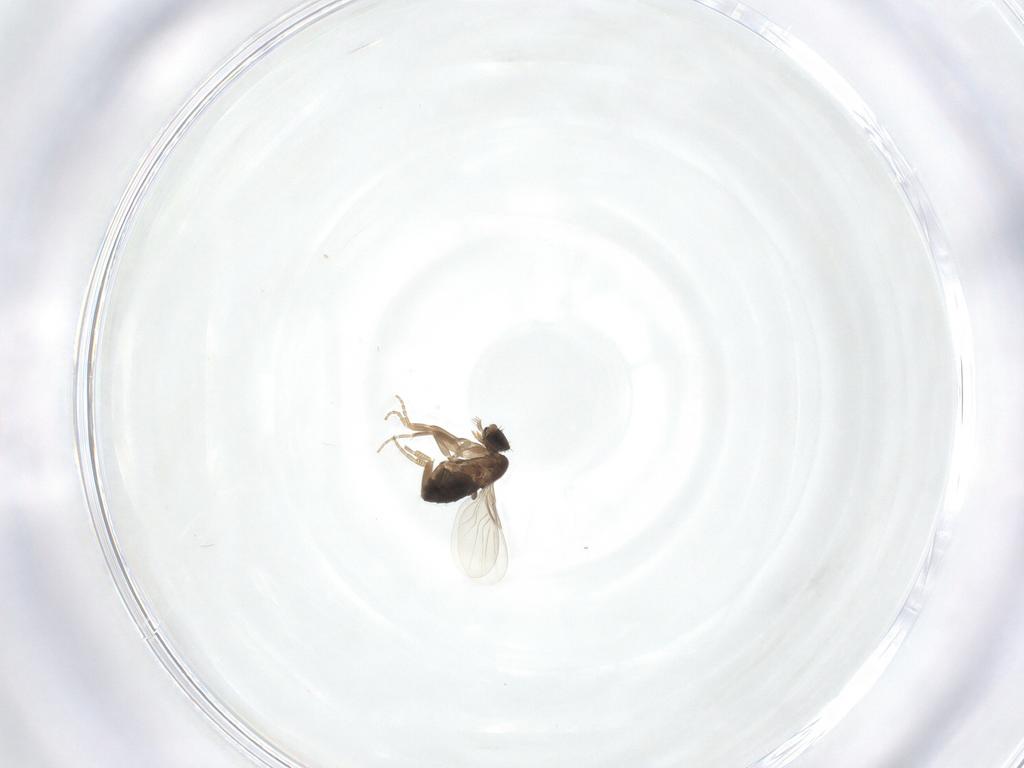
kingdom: Animalia
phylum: Arthropoda
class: Insecta
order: Diptera
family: Phoridae
